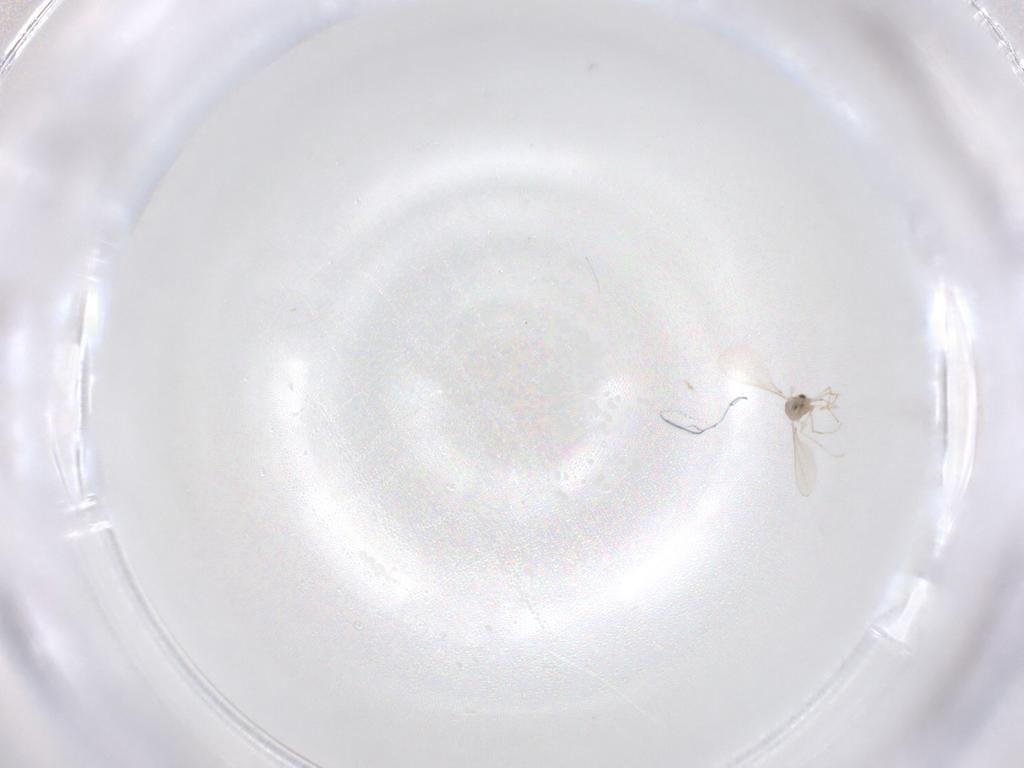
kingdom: Animalia
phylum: Arthropoda
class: Insecta
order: Diptera
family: Cecidomyiidae
